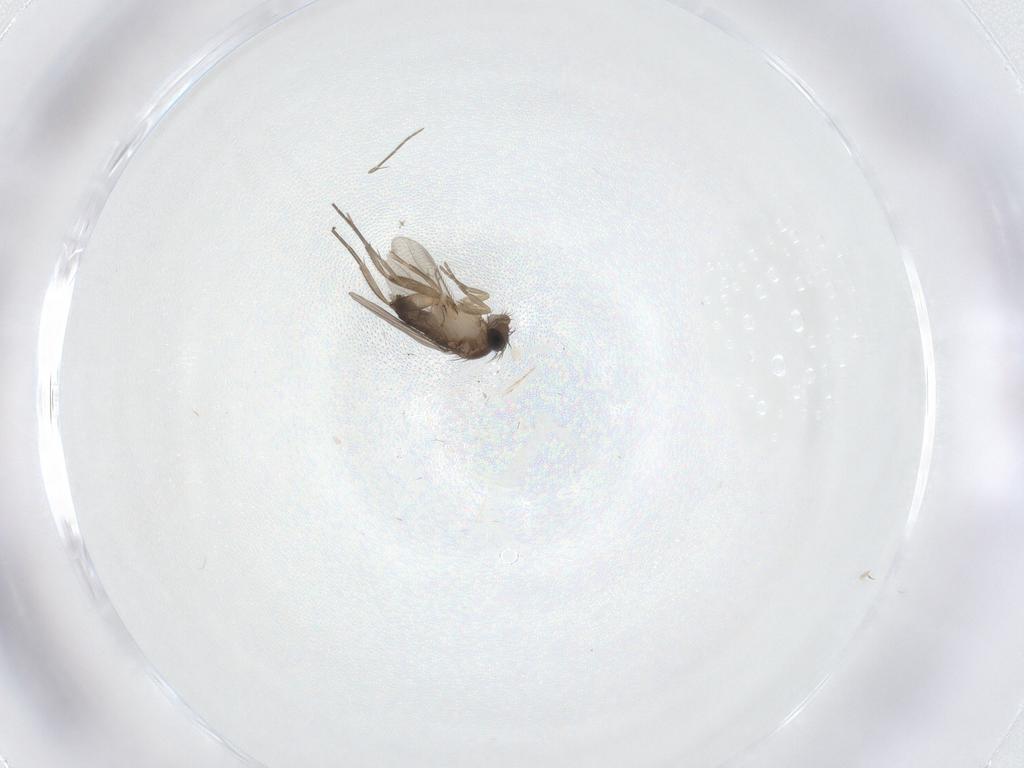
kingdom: Animalia
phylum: Arthropoda
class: Insecta
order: Diptera
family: Phoridae
